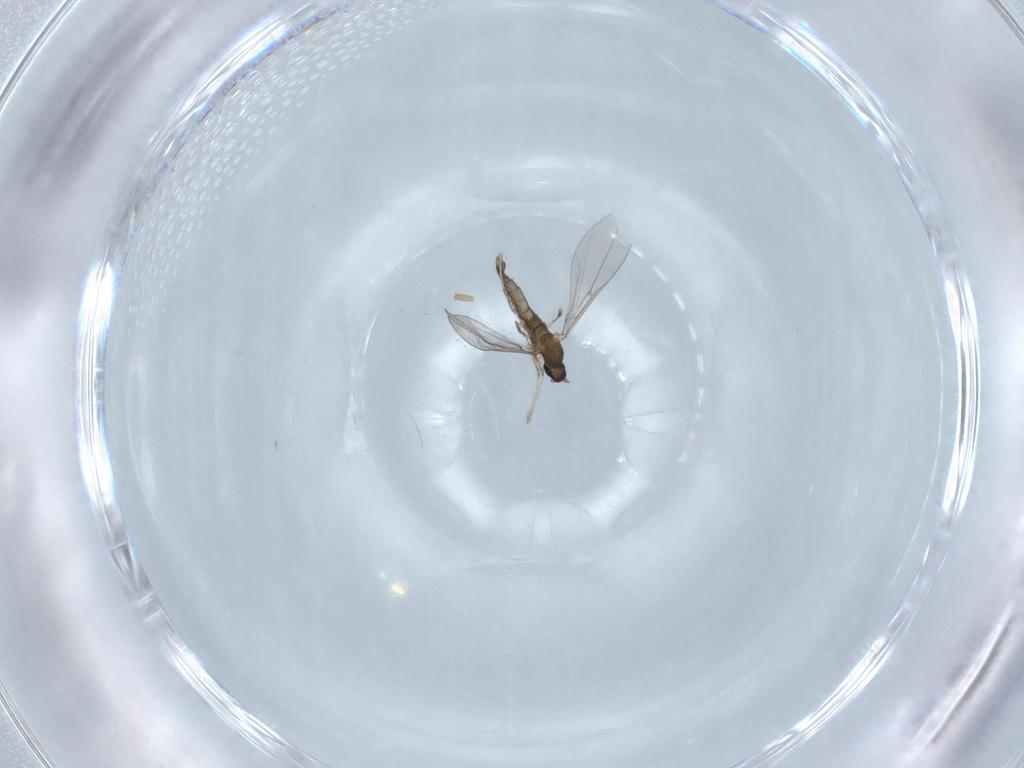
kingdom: Animalia
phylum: Arthropoda
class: Insecta
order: Diptera
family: Cecidomyiidae
